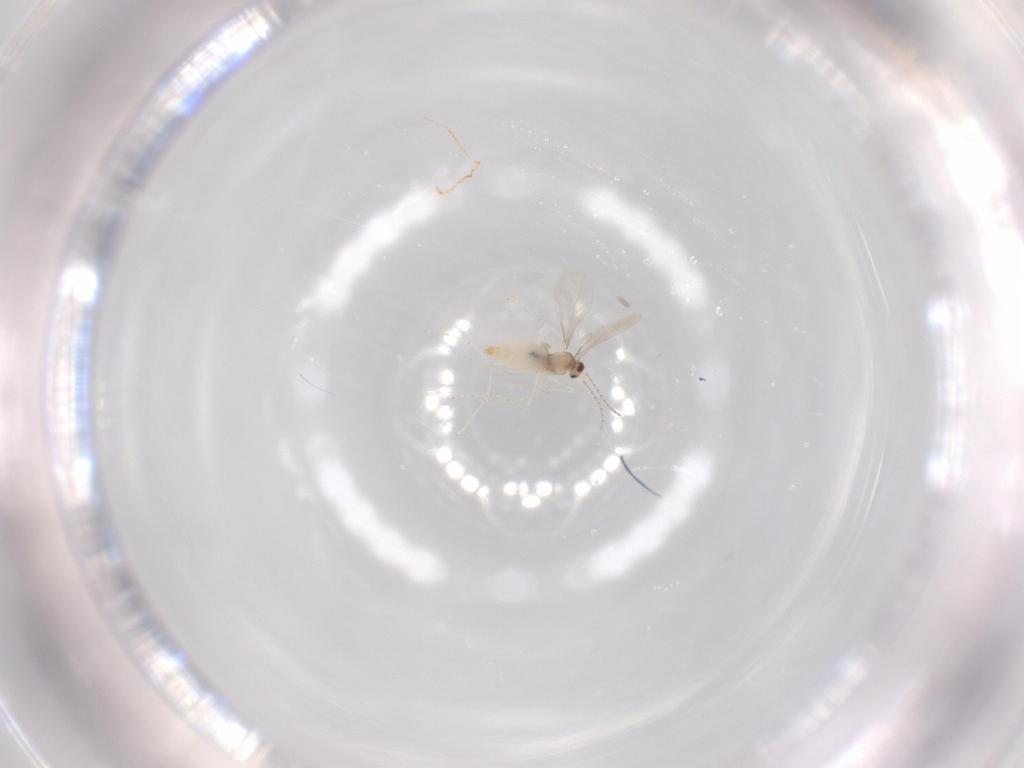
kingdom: Animalia
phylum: Arthropoda
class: Insecta
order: Diptera
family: Cecidomyiidae
